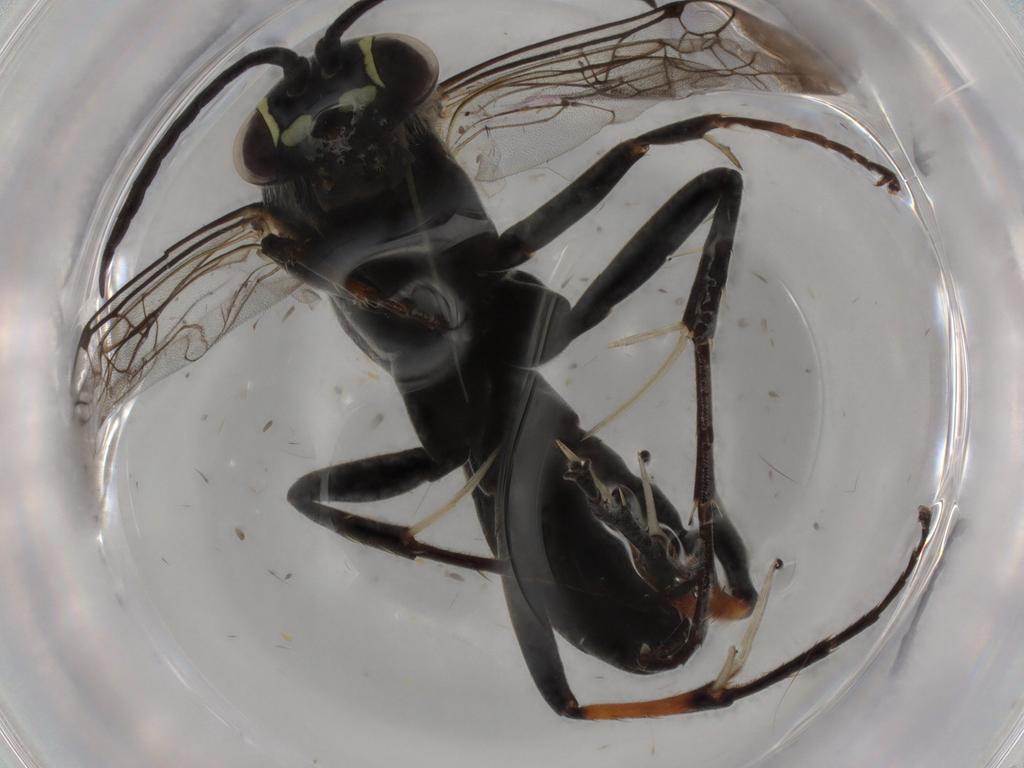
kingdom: Animalia
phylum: Arthropoda
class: Insecta
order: Hymenoptera
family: Pompilidae
